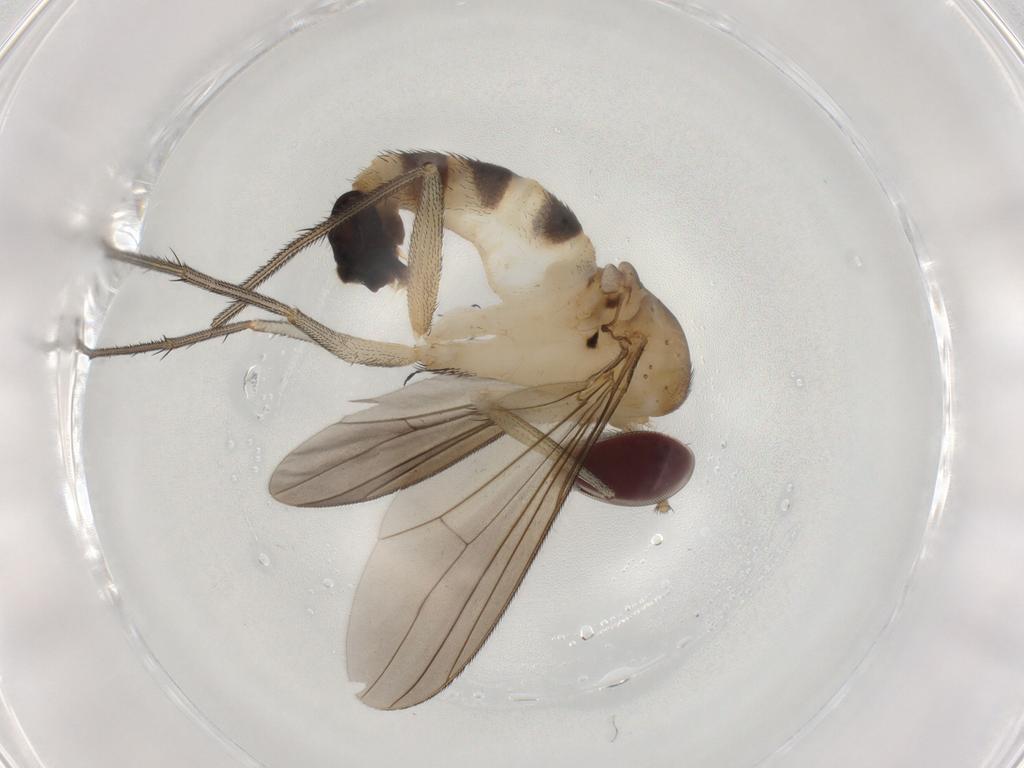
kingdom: Animalia
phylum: Arthropoda
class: Insecta
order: Diptera
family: Dolichopodidae
